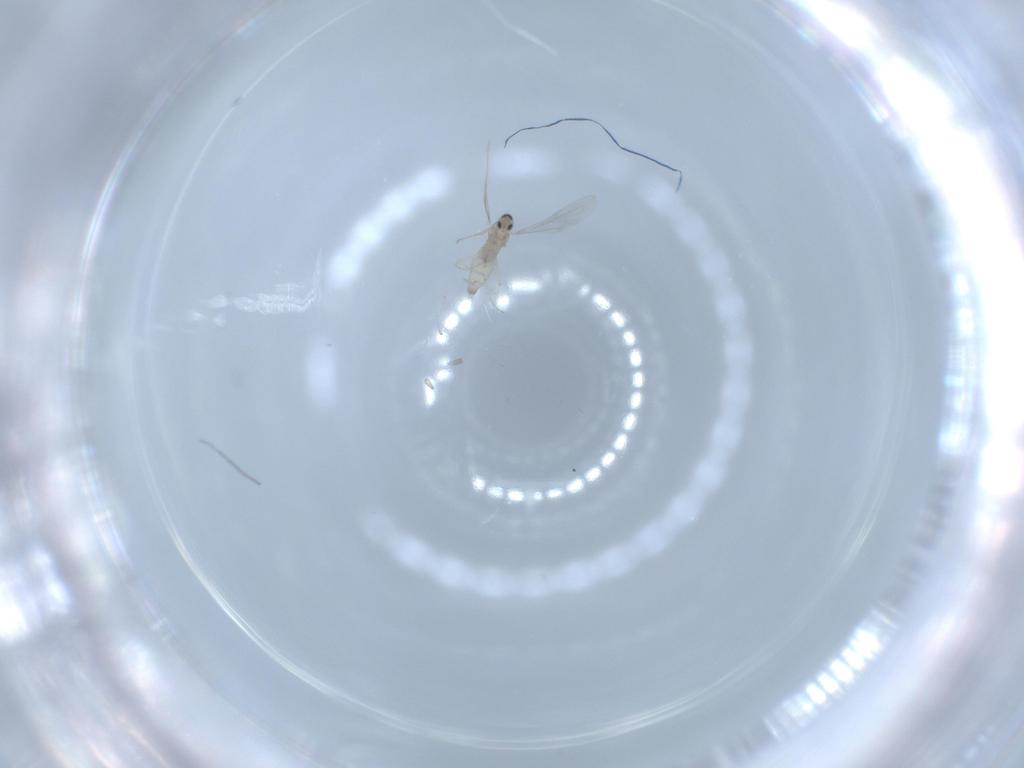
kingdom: Animalia
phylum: Arthropoda
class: Insecta
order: Diptera
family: Cecidomyiidae
